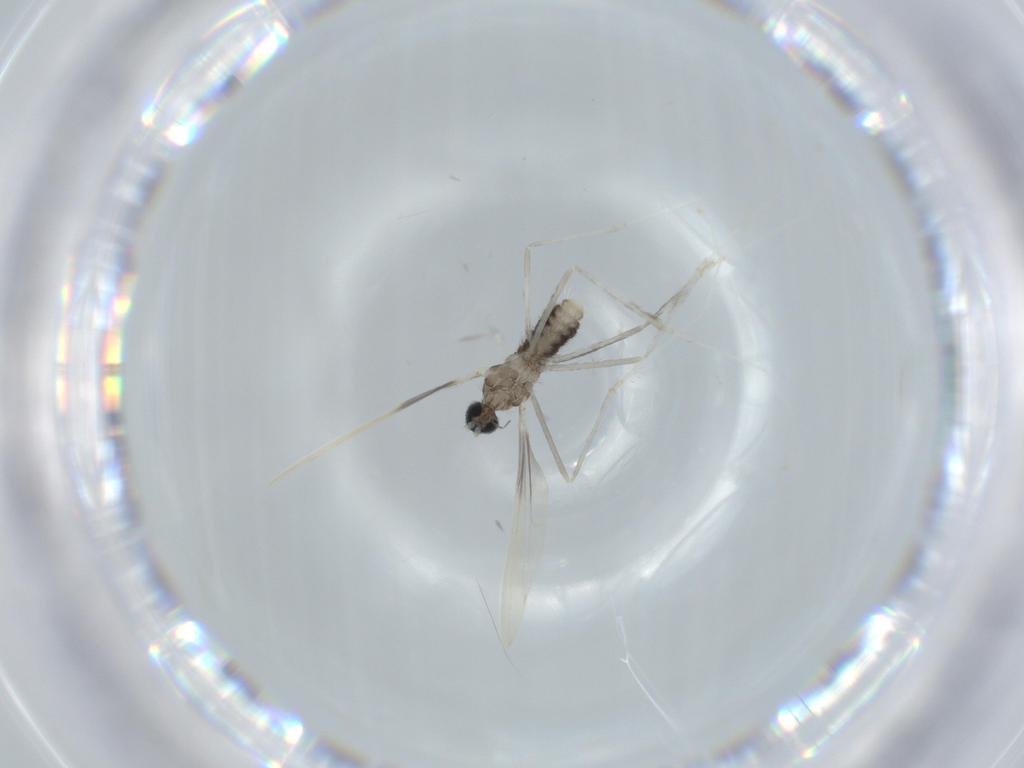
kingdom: Animalia
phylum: Arthropoda
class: Insecta
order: Diptera
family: Cecidomyiidae
